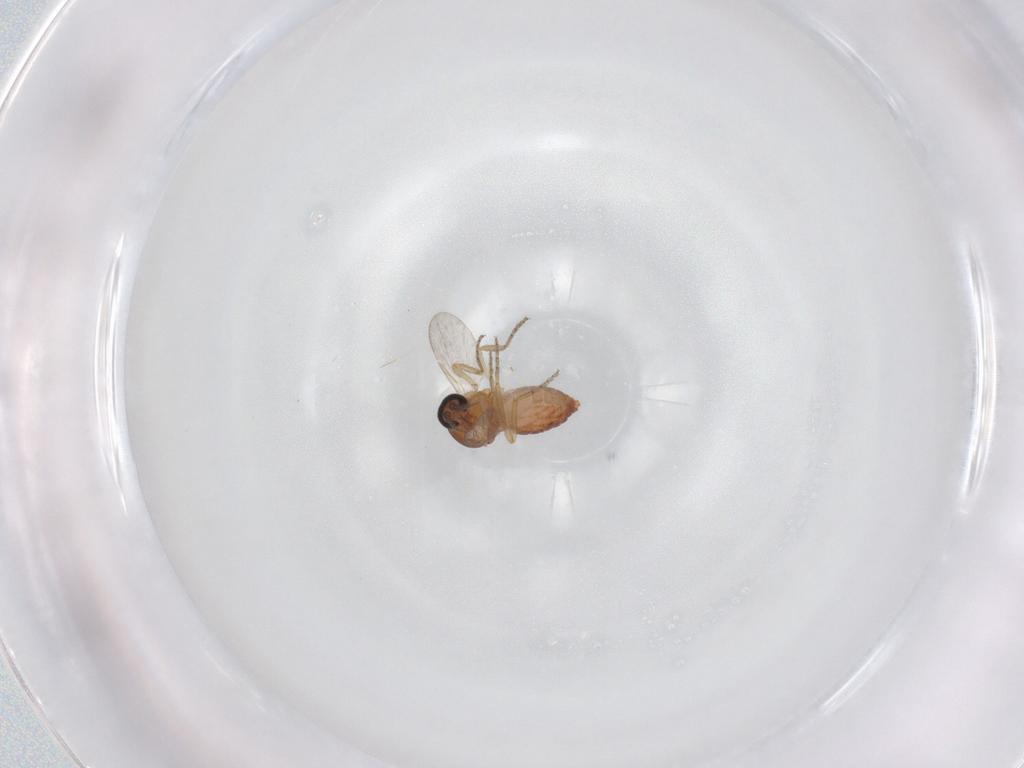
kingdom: Animalia
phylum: Arthropoda
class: Insecta
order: Diptera
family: Ceratopogonidae
